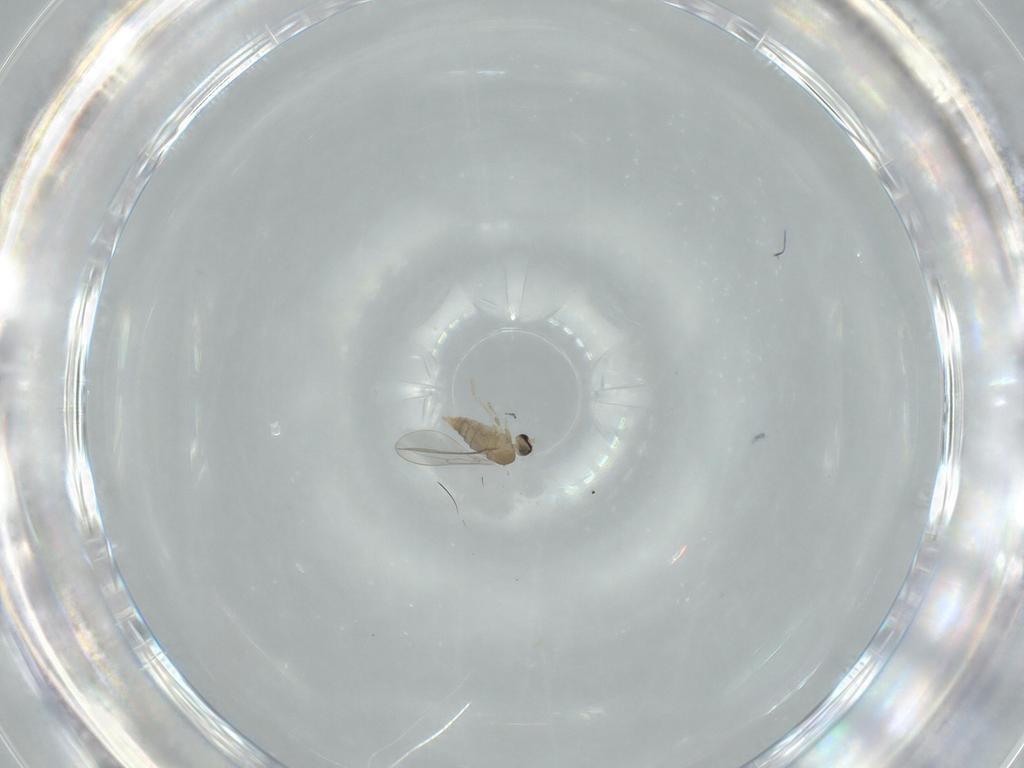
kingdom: Animalia
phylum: Arthropoda
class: Insecta
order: Diptera
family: Cecidomyiidae
